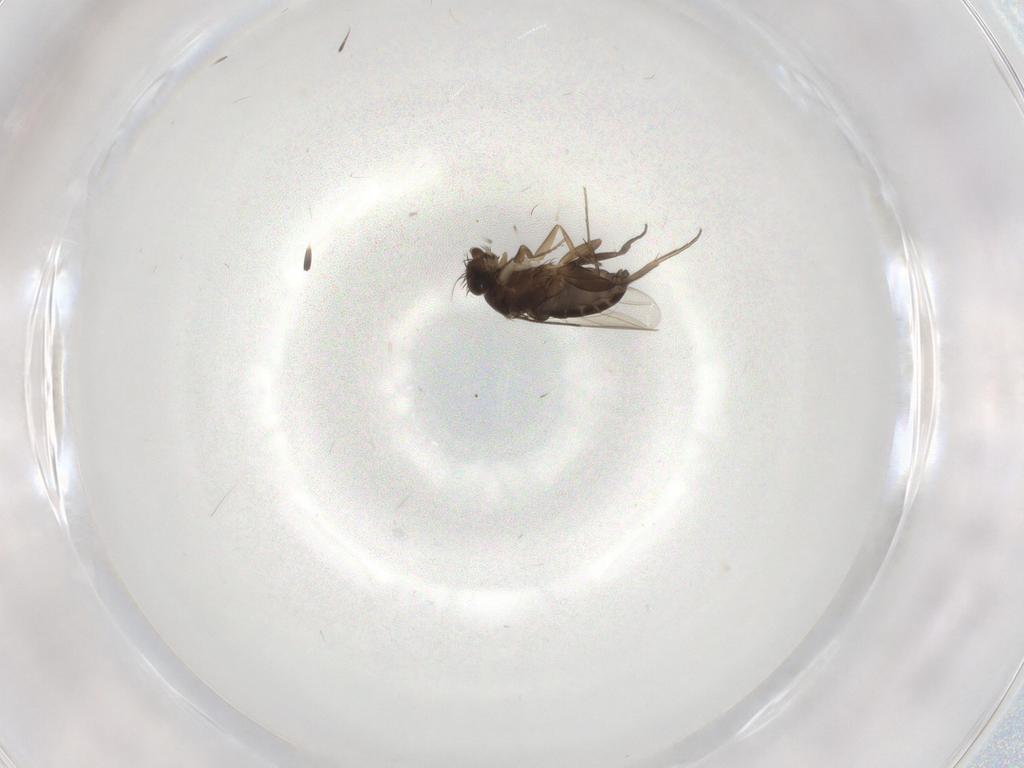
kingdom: Animalia
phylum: Arthropoda
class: Insecta
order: Diptera
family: Phoridae
